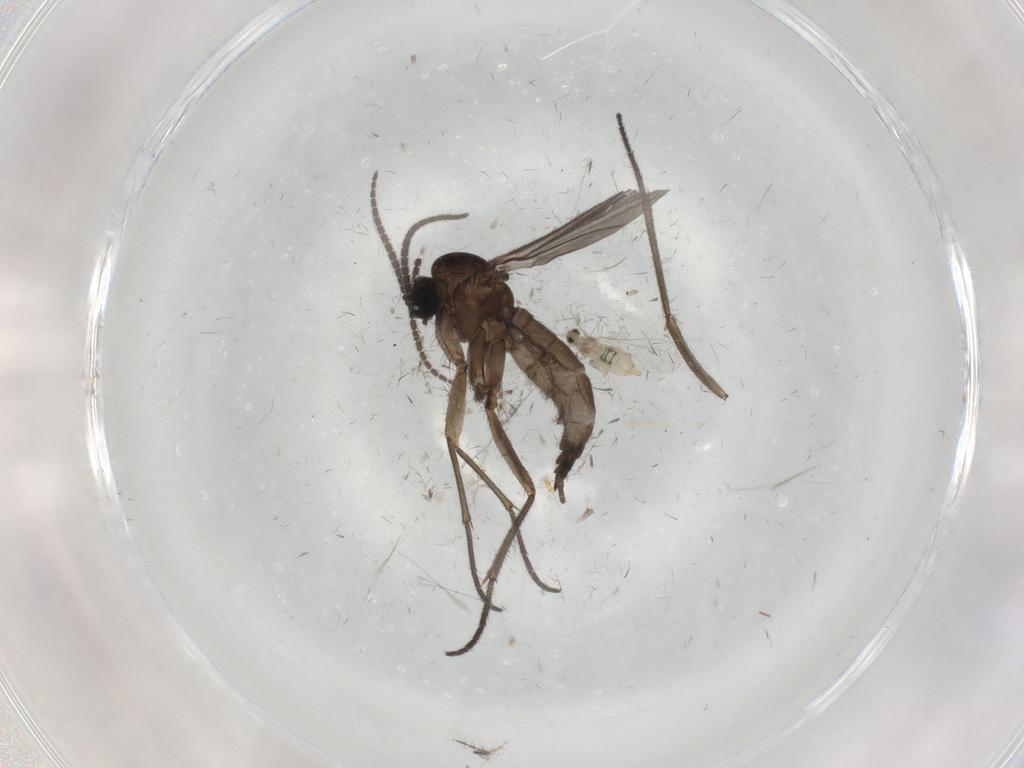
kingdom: Animalia
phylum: Arthropoda
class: Insecta
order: Diptera
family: Sciaridae
